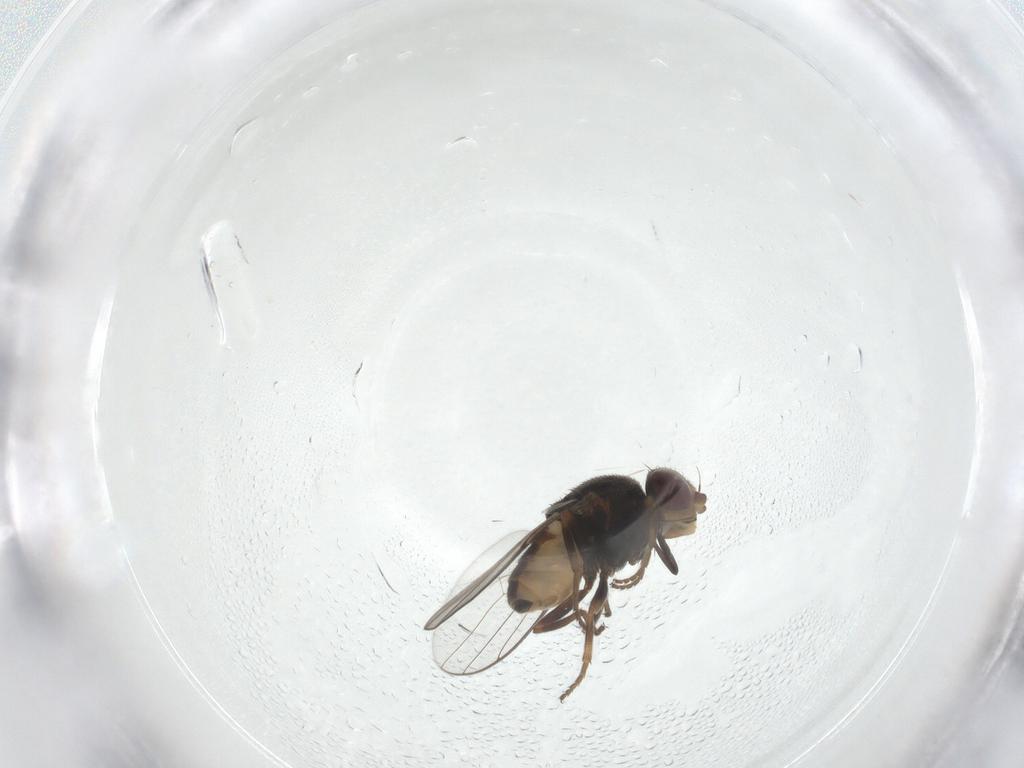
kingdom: Animalia
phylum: Arthropoda
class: Insecta
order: Diptera
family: Chloropidae
